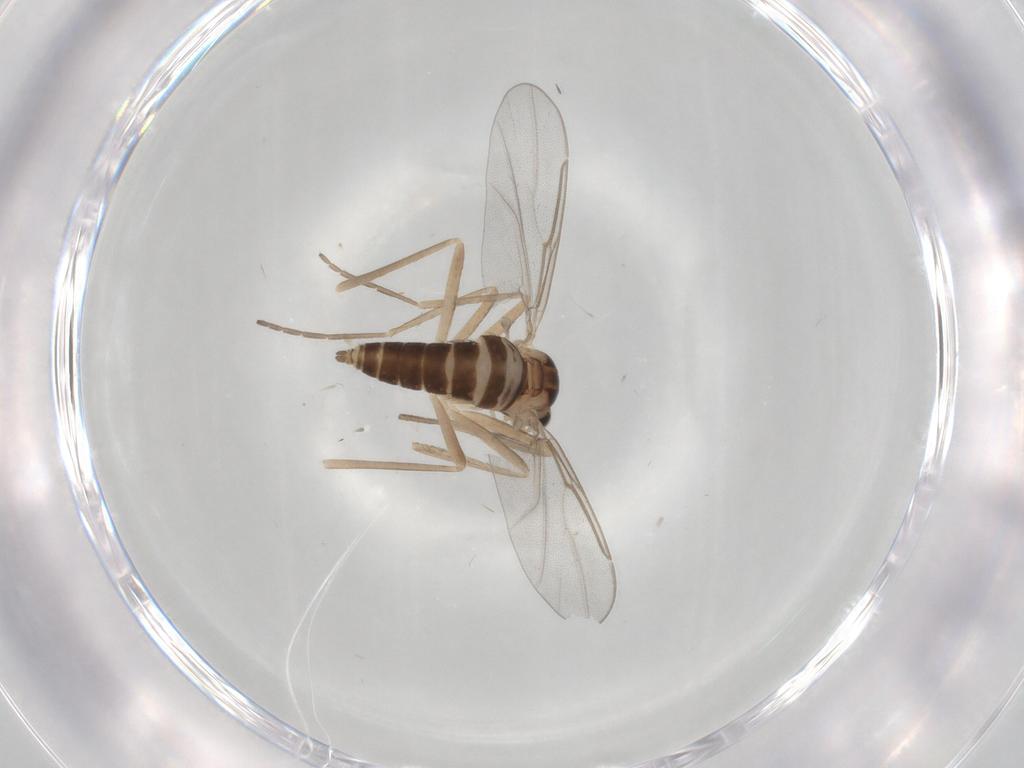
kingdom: Animalia
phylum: Arthropoda
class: Insecta
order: Diptera
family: Cecidomyiidae
